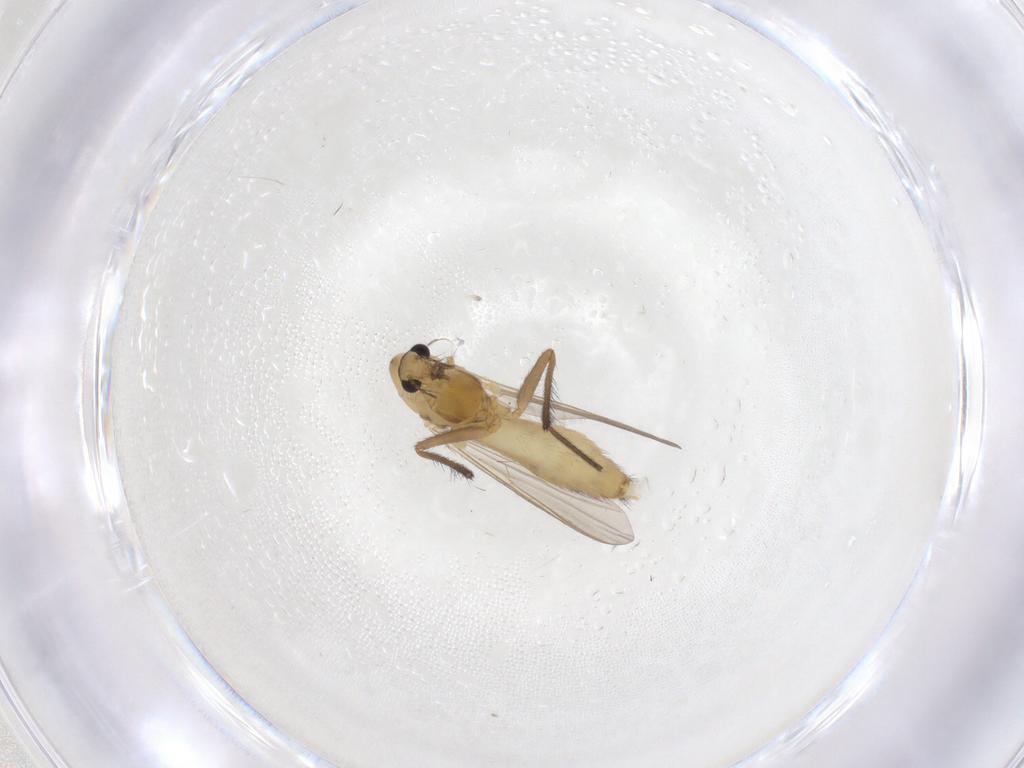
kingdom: Animalia
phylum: Arthropoda
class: Insecta
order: Diptera
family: Chironomidae
